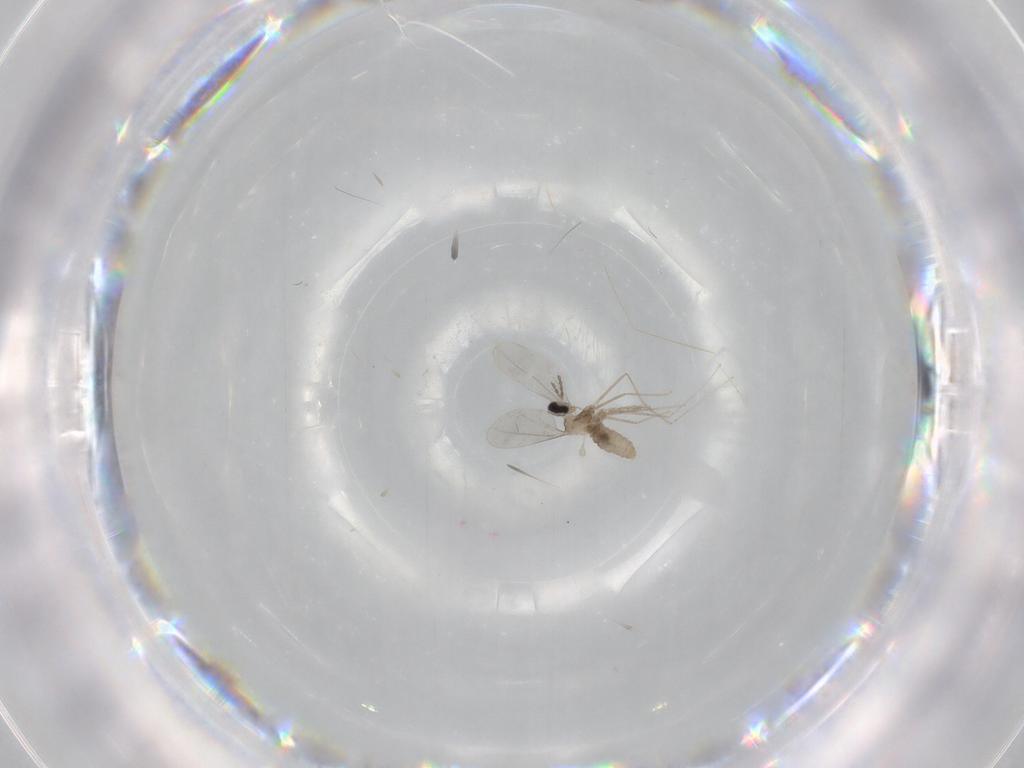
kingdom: Animalia
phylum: Arthropoda
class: Insecta
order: Diptera
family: Cecidomyiidae
